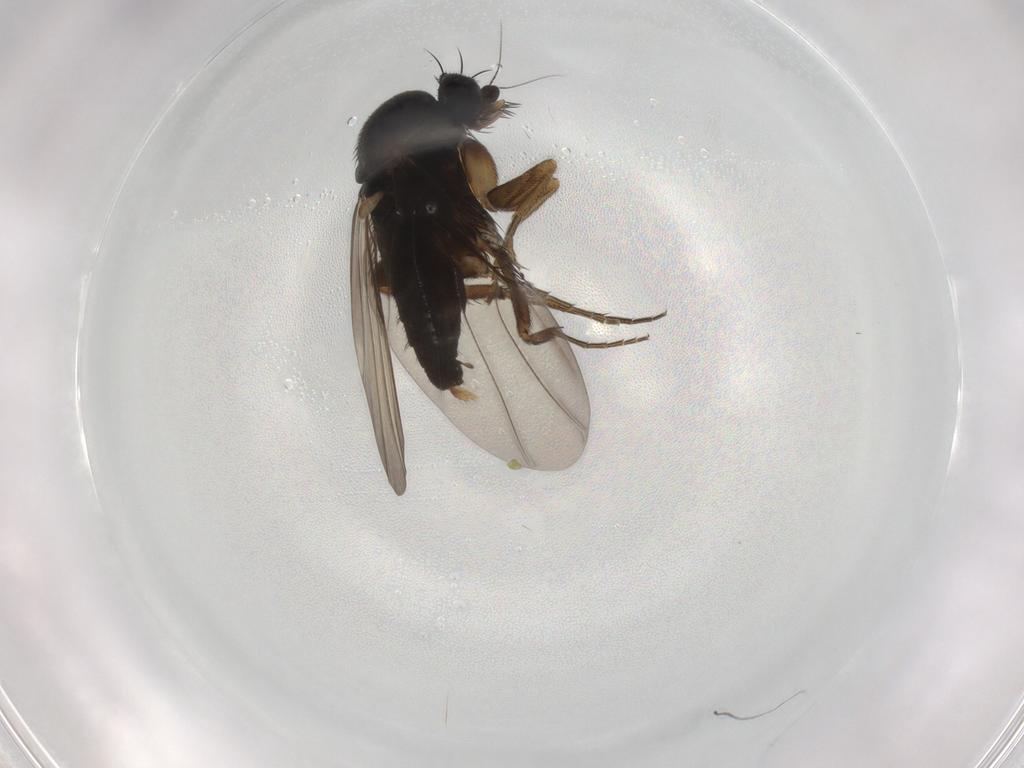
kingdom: Animalia
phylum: Arthropoda
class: Insecta
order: Diptera
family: Phoridae
